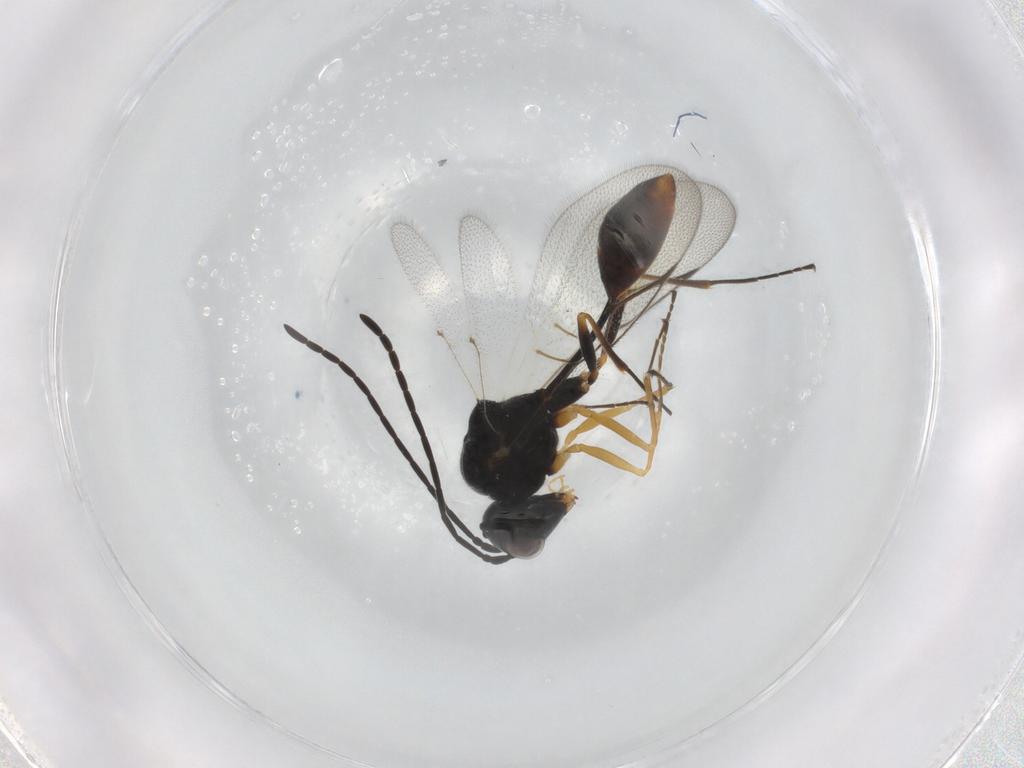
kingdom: Animalia
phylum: Arthropoda
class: Insecta
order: Hymenoptera
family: Figitidae
